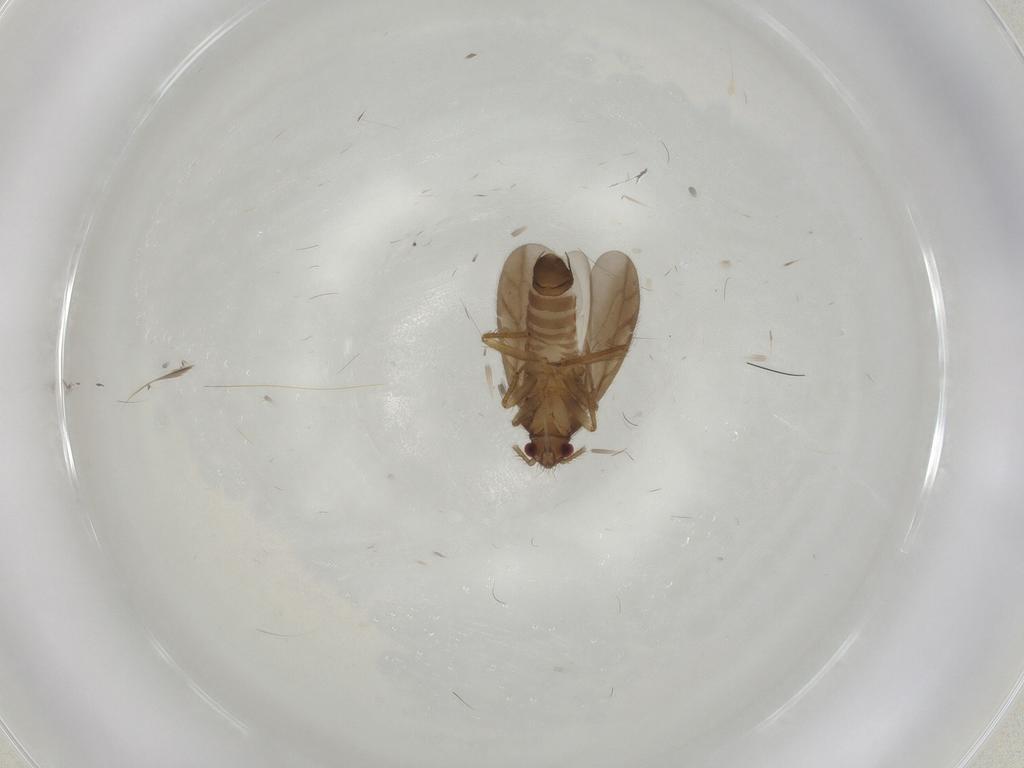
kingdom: Animalia
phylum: Arthropoda
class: Insecta
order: Hemiptera
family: Ceratocombidae
